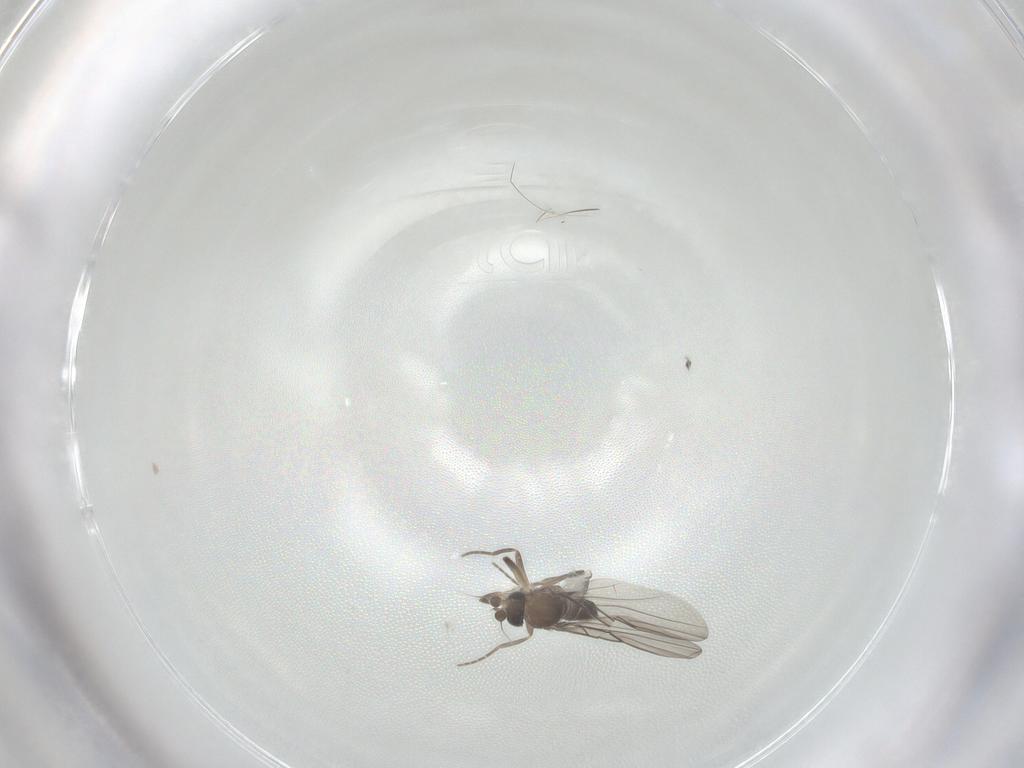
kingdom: Animalia
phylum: Arthropoda
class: Insecta
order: Diptera
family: Phoridae
